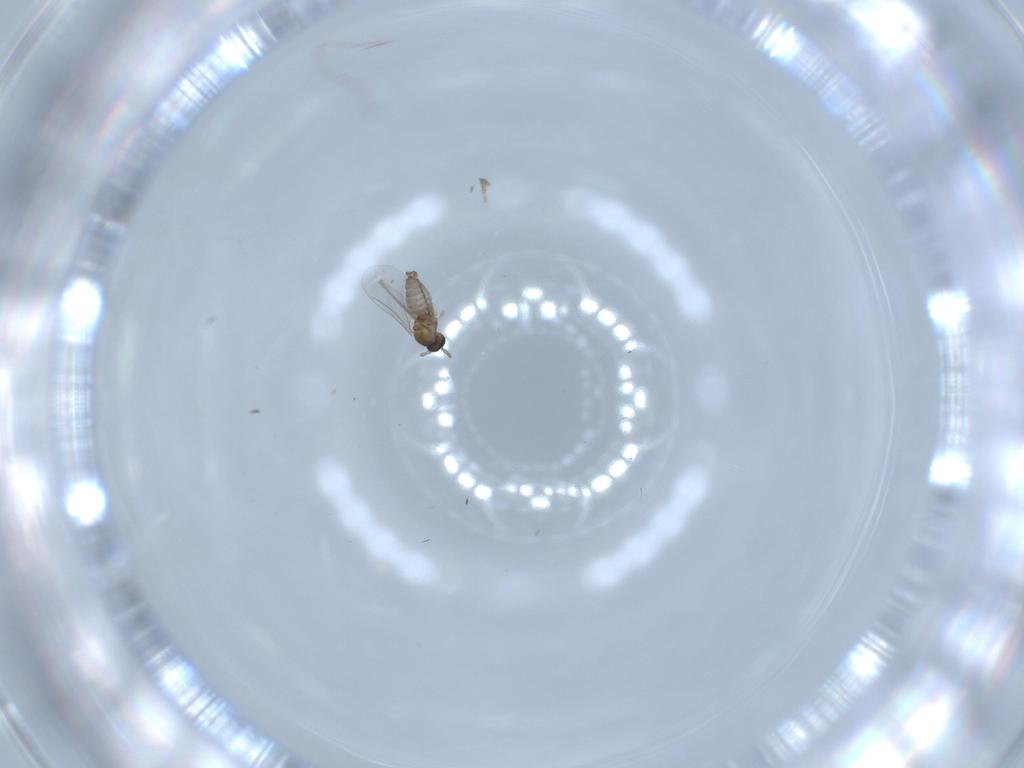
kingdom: Animalia
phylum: Arthropoda
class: Insecta
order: Diptera
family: Cecidomyiidae
